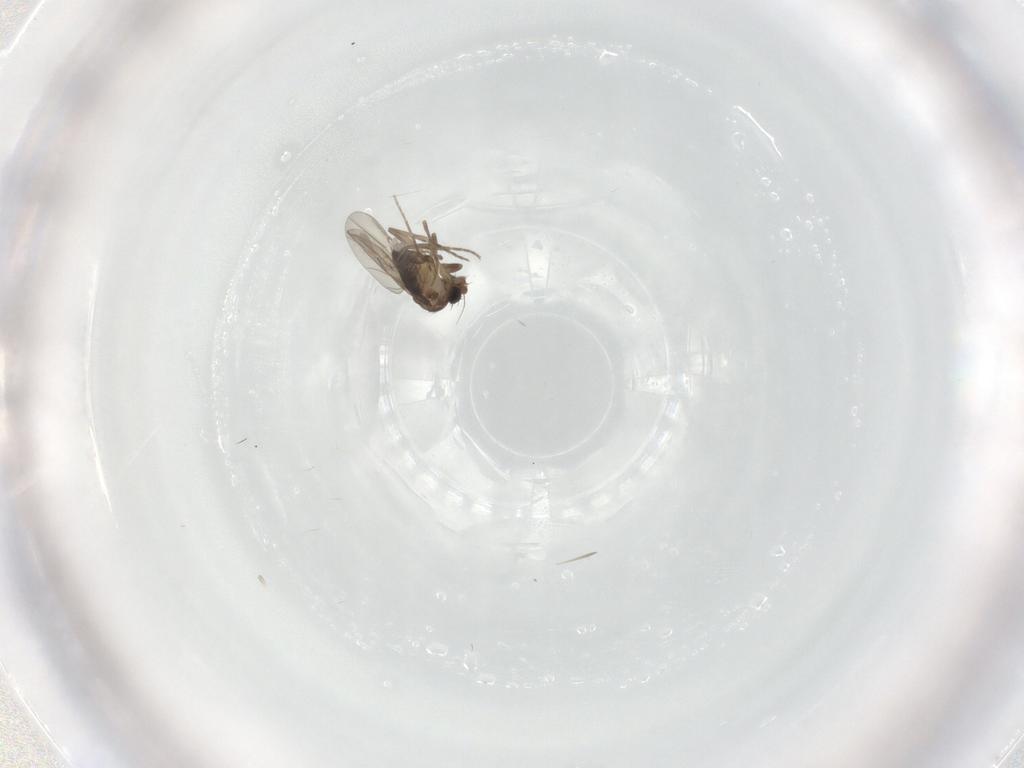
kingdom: Animalia
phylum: Arthropoda
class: Insecta
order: Diptera
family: Phoridae
